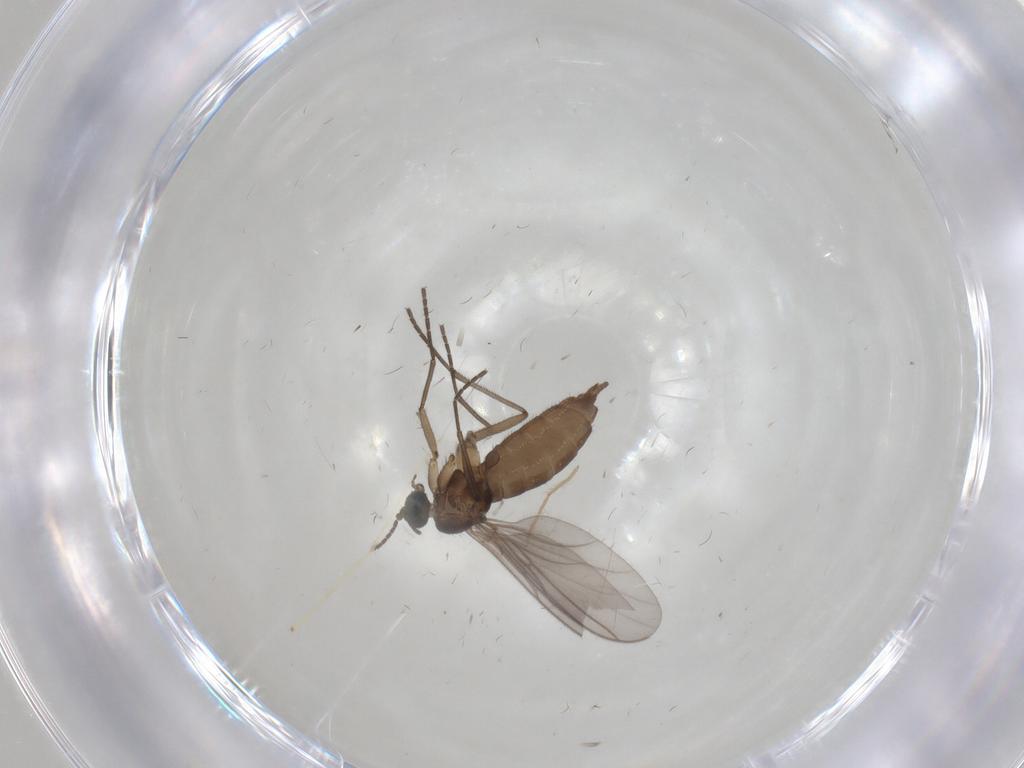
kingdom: Animalia
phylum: Arthropoda
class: Insecta
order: Diptera
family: Sciaridae
